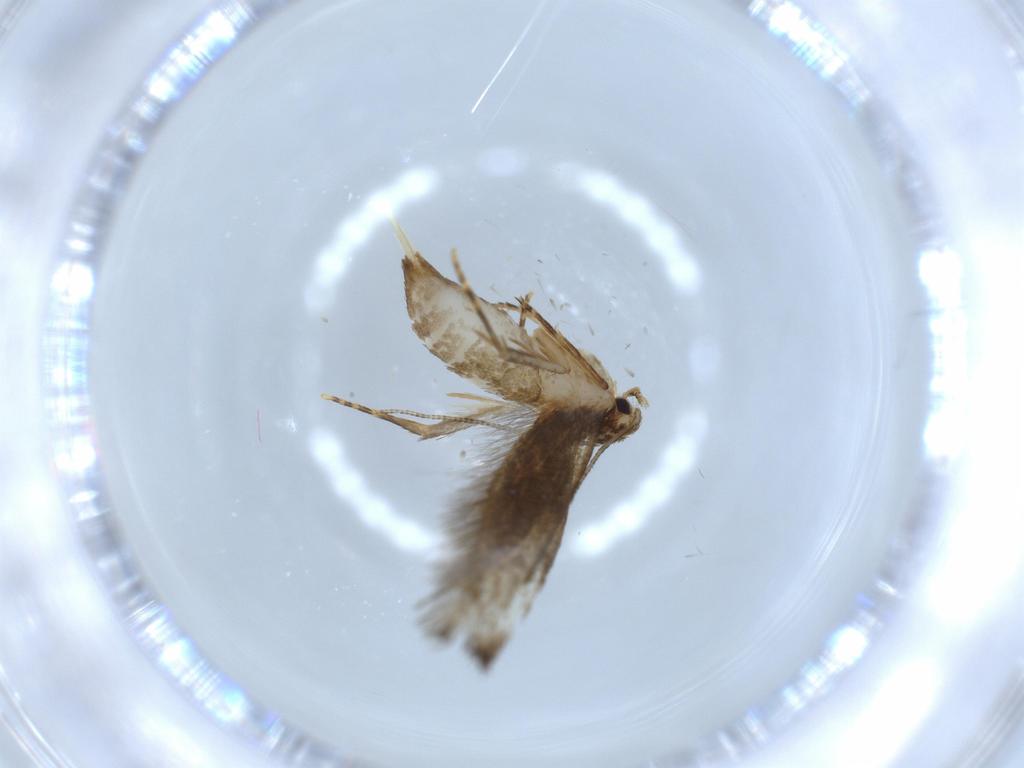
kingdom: Animalia
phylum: Arthropoda
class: Insecta
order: Lepidoptera
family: Tineidae
